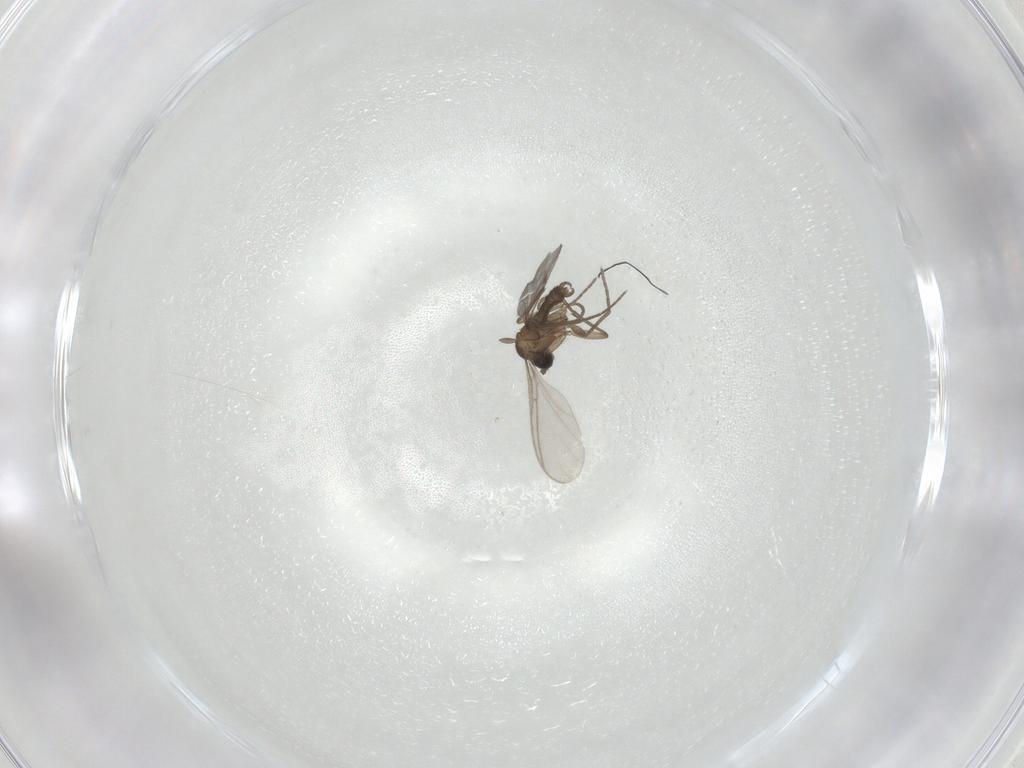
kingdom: Animalia
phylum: Arthropoda
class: Insecta
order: Diptera
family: Sciaridae
